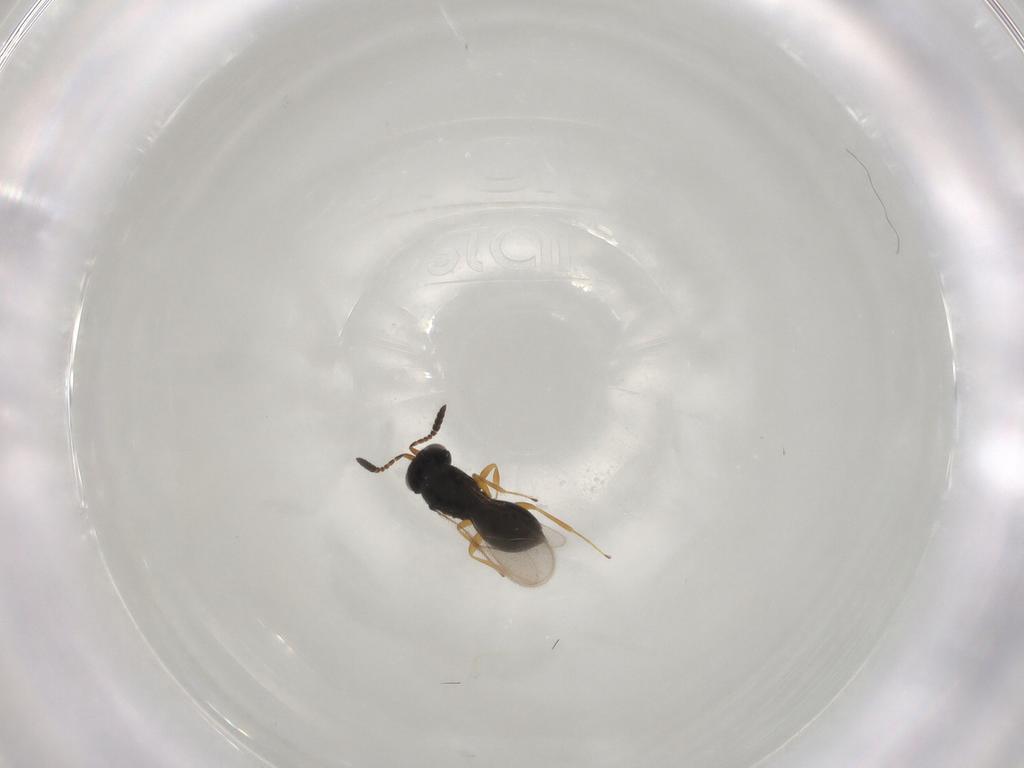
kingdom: Animalia
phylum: Arthropoda
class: Insecta
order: Hymenoptera
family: Scelionidae
